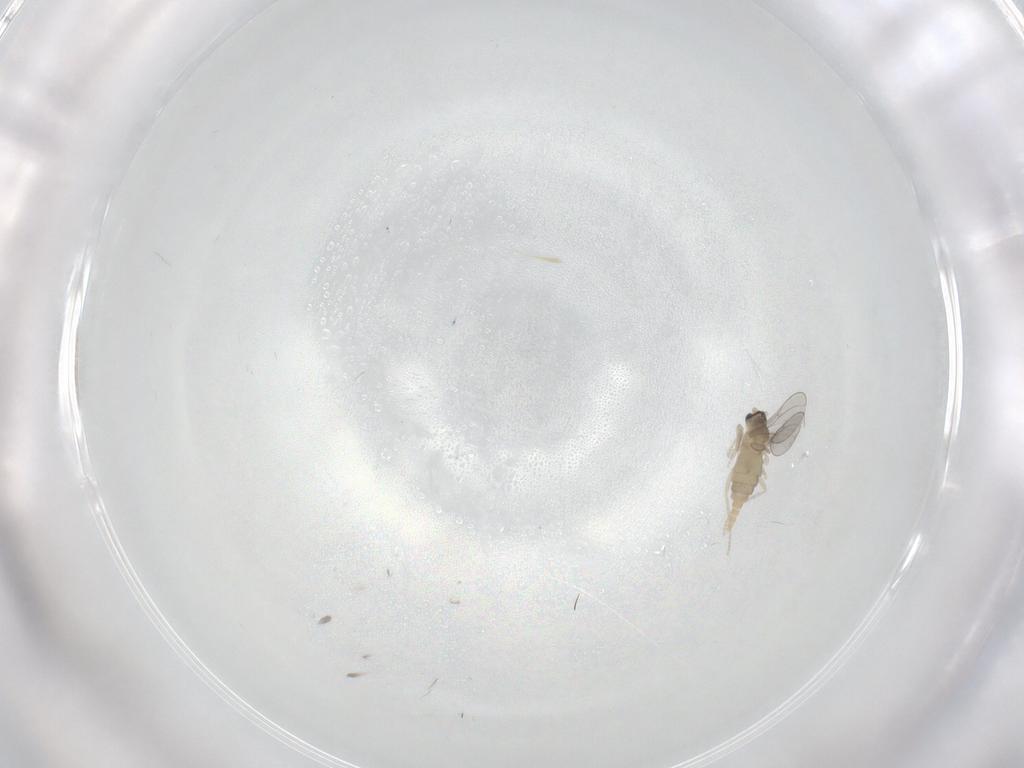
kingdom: Animalia
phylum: Arthropoda
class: Insecta
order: Diptera
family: Cecidomyiidae
